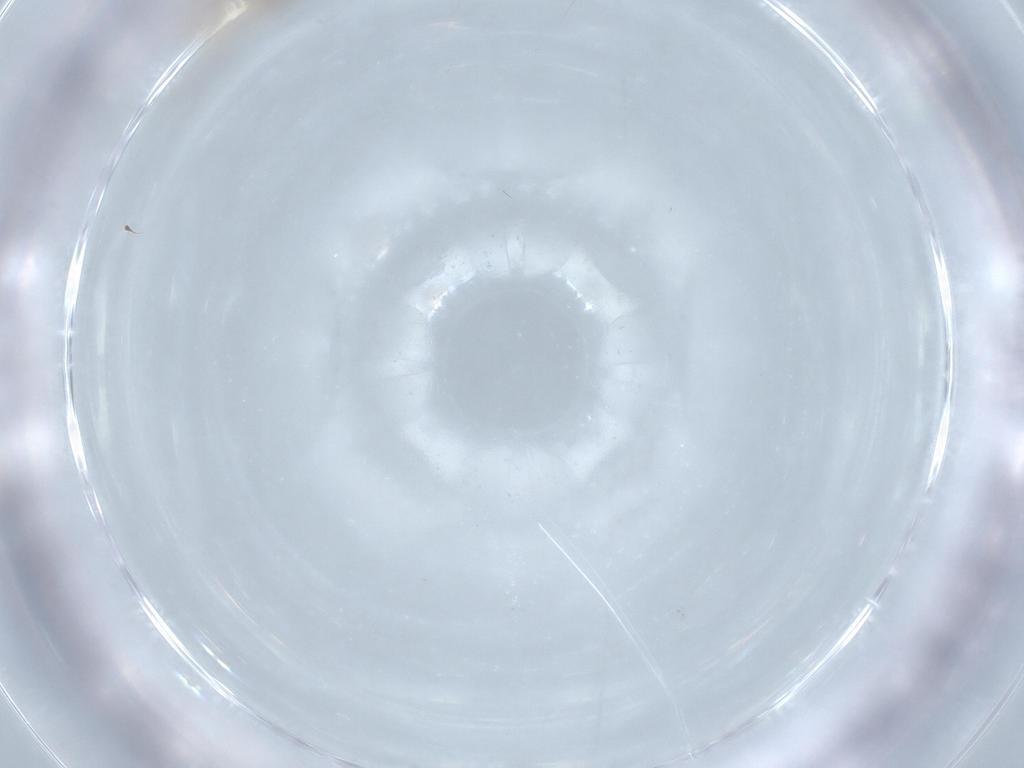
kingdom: Animalia
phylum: Arthropoda
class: Insecta
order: Diptera
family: Cecidomyiidae
